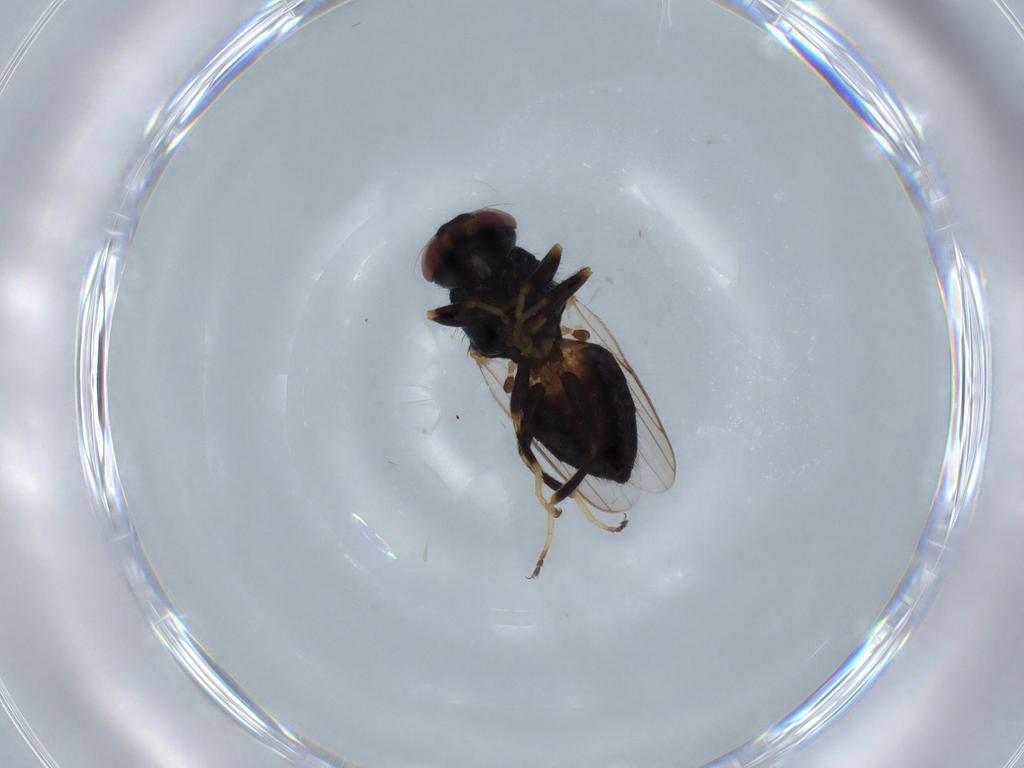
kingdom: Animalia
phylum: Arthropoda
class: Insecta
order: Diptera
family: Chloropidae
